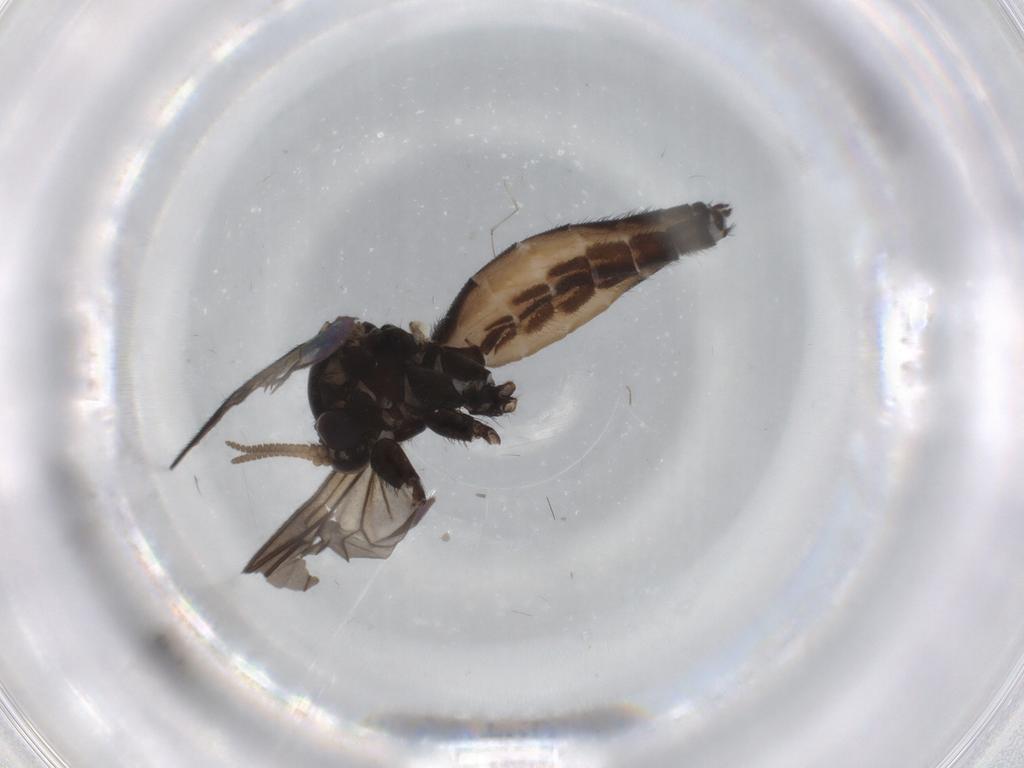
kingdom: Animalia
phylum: Arthropoda
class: Insecta
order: Diptera
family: Mycetophilidae
